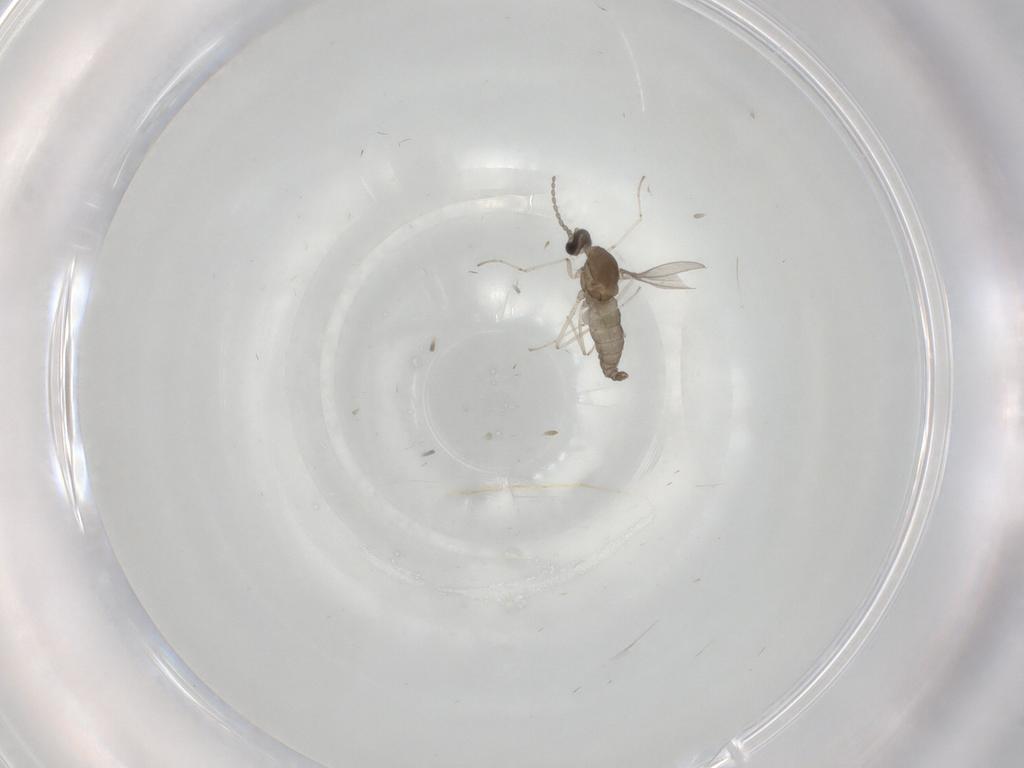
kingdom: Animalia
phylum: Arthropoda
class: Insecta
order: Diptera
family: Cecidomyiidae
